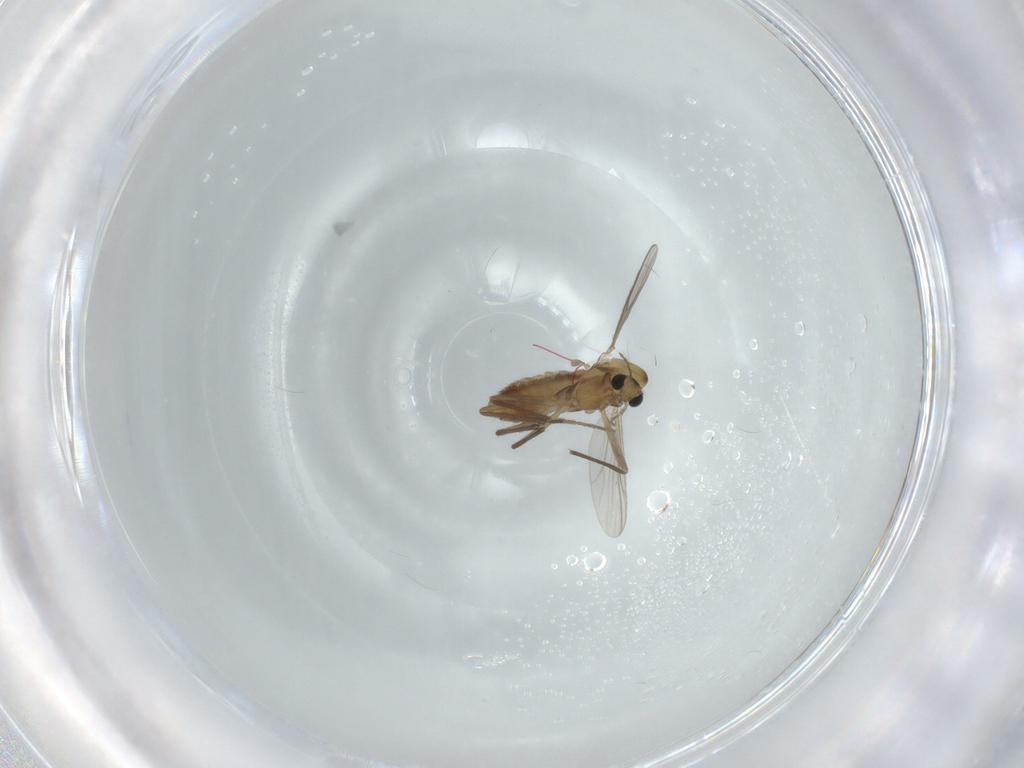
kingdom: Animalia
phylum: Arthropoda
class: Insecta
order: Diptera
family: Chironomidae
